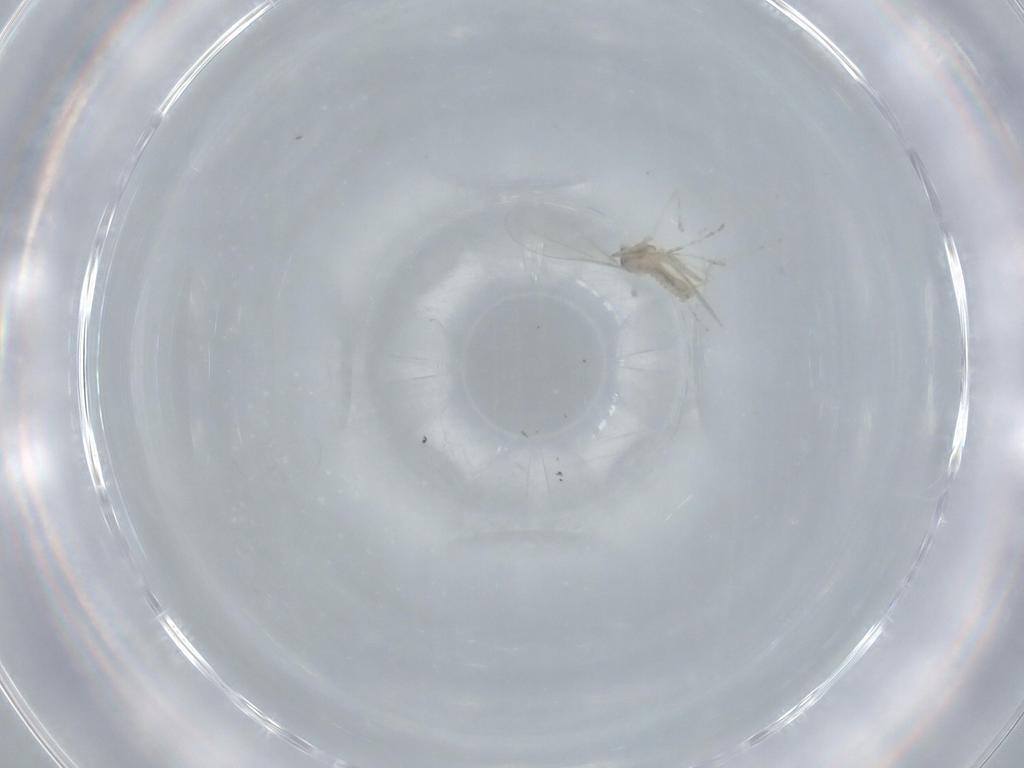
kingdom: Animalia
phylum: Arthropoda
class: Insecta
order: Diptera
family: Cecidomyiidae
